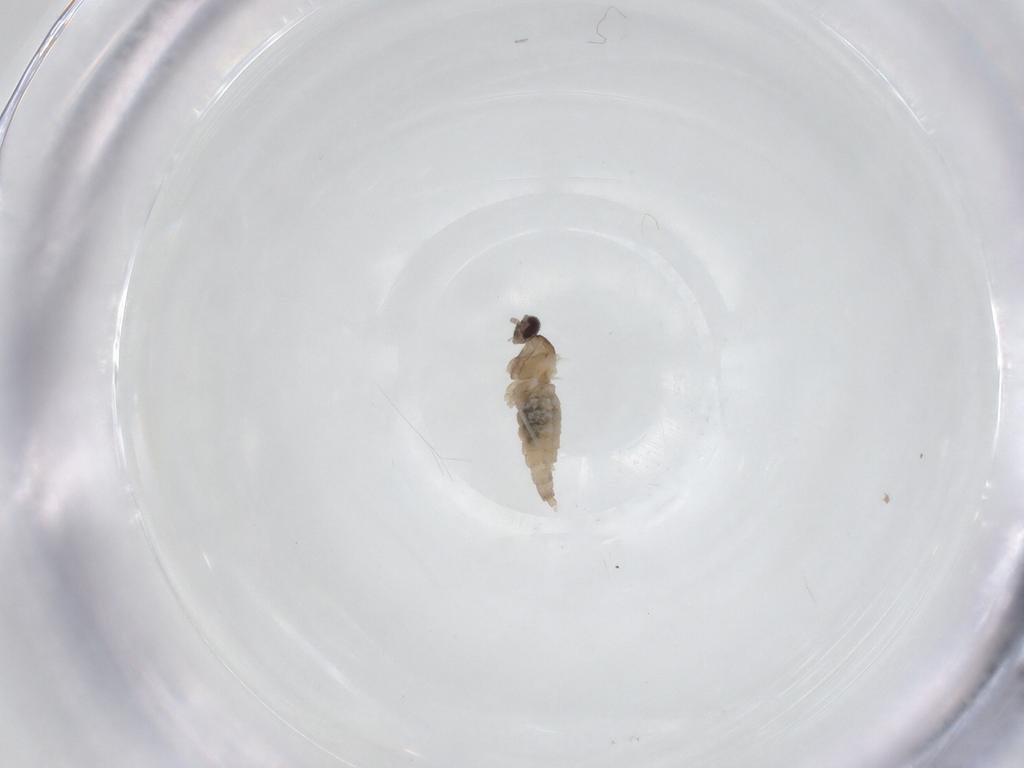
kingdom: Animalia
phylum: Arthropoda
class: Insecta
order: Diptera
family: Cecidomyiidae
